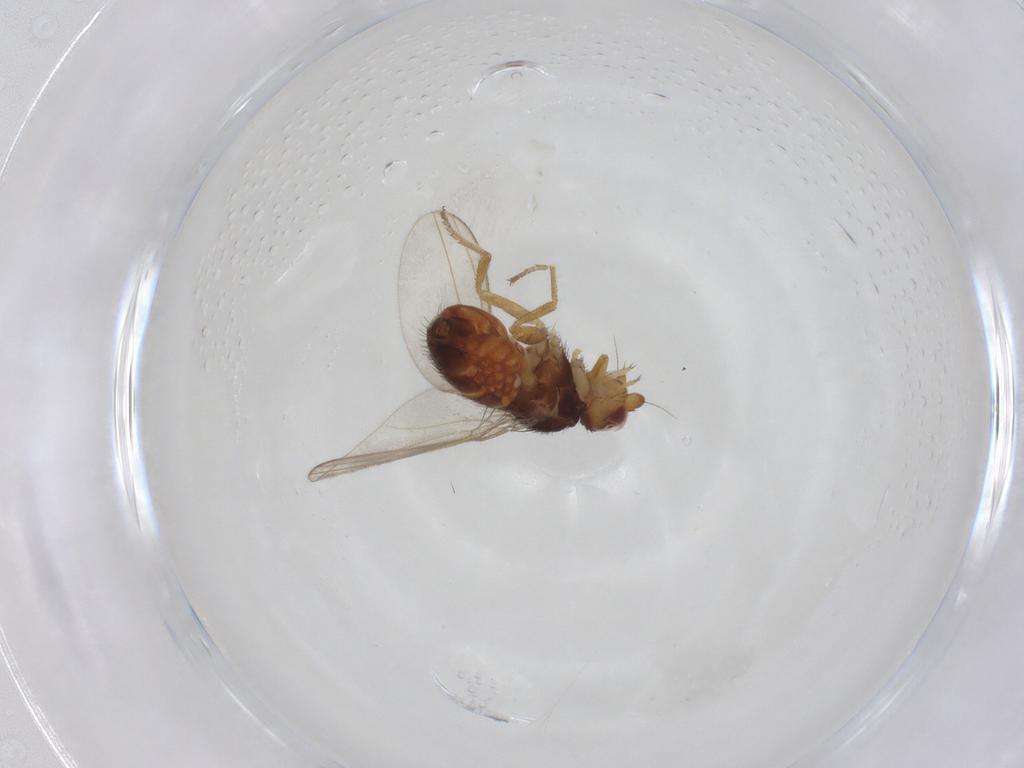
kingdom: Animalia
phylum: Arthropoda
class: Insecta
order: Diptera
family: Milichiidae
